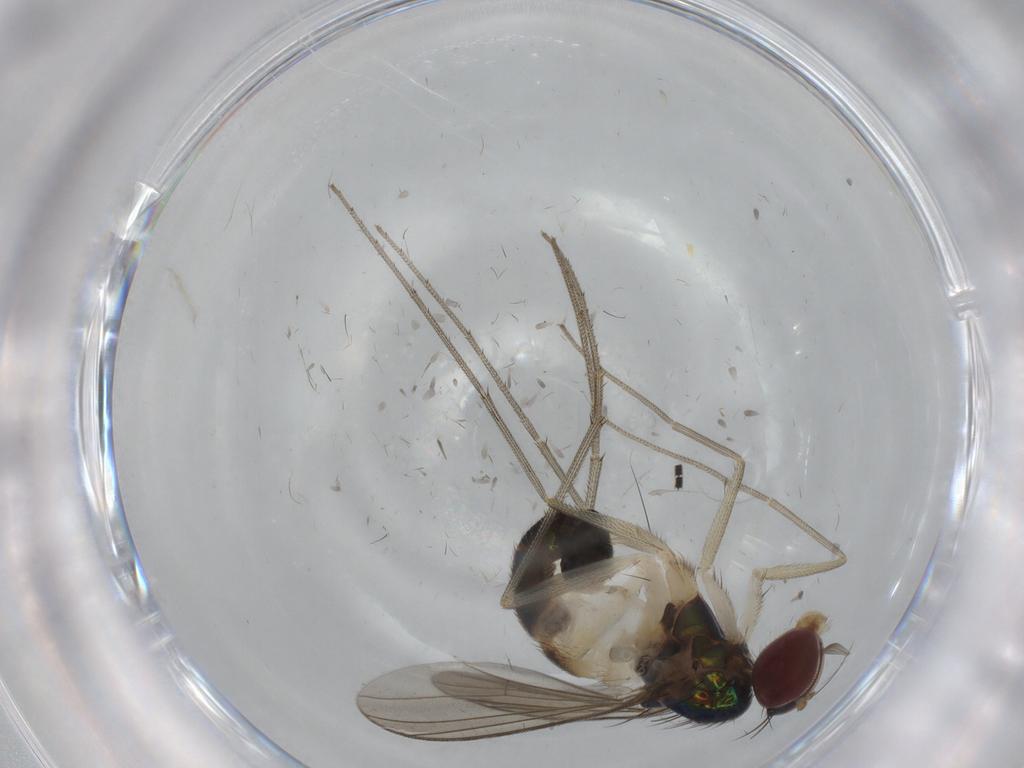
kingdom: Animalia
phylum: Arthropoda
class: Insecta
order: Diptera
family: Dolichopodidae
